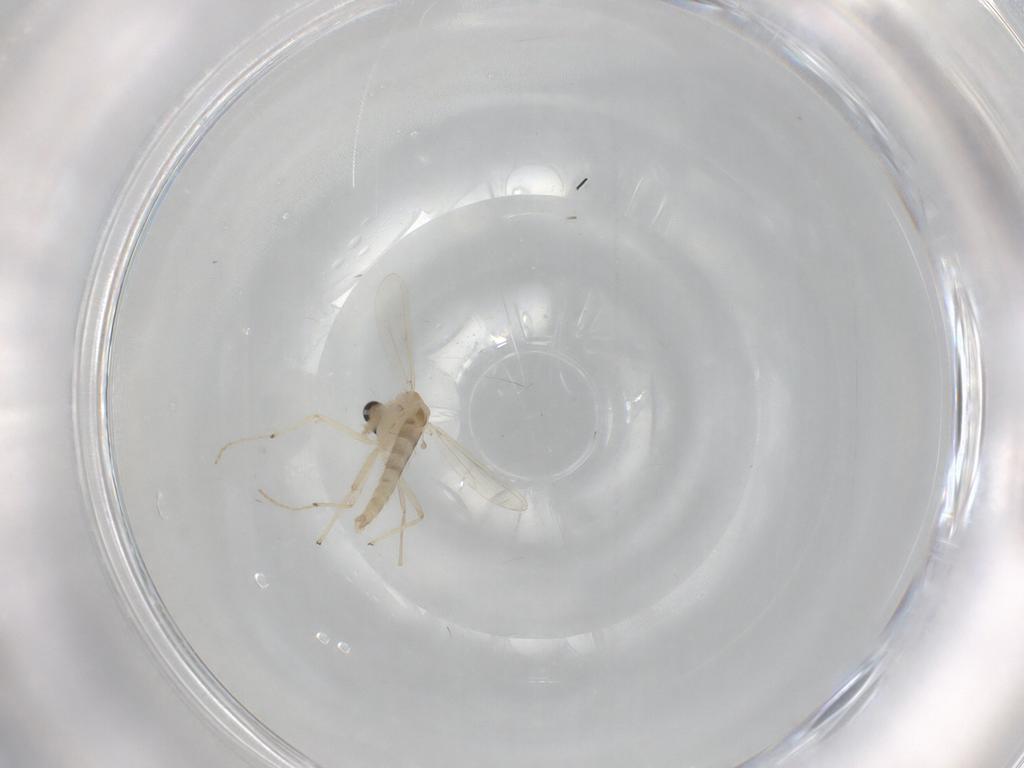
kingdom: Animalia
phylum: Arthropoda
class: Insecta
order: Diptera
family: Chironomidae
